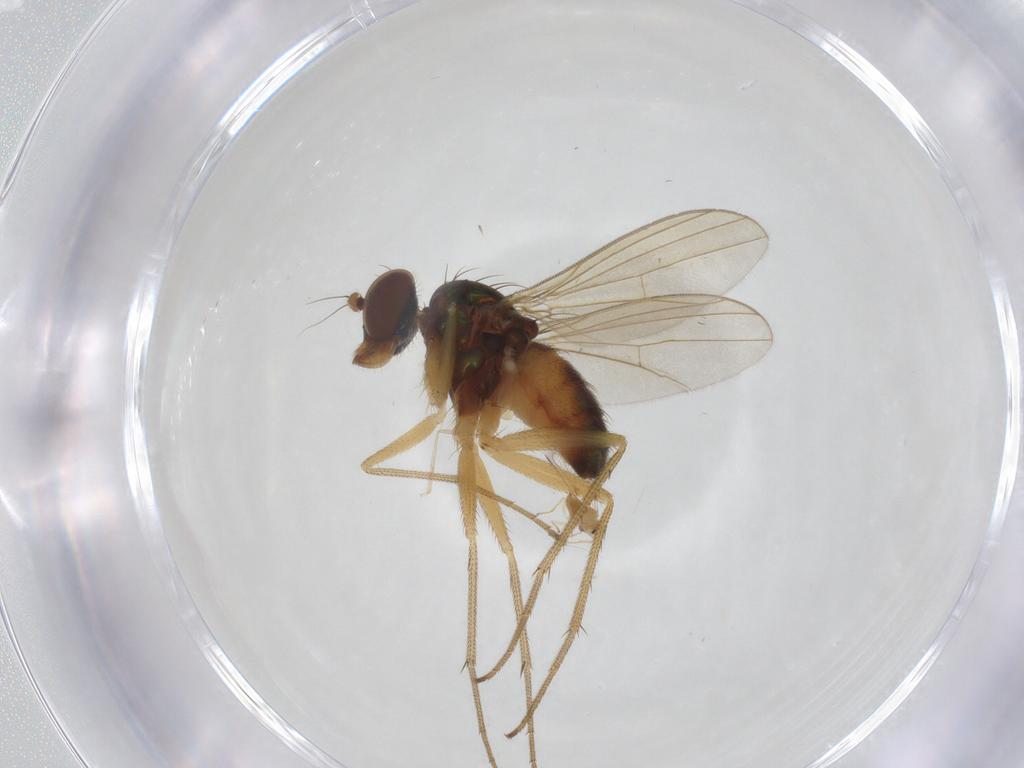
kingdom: Animalia
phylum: Arthropoda
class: Insecta
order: Diptera
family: Dolichopodidae
